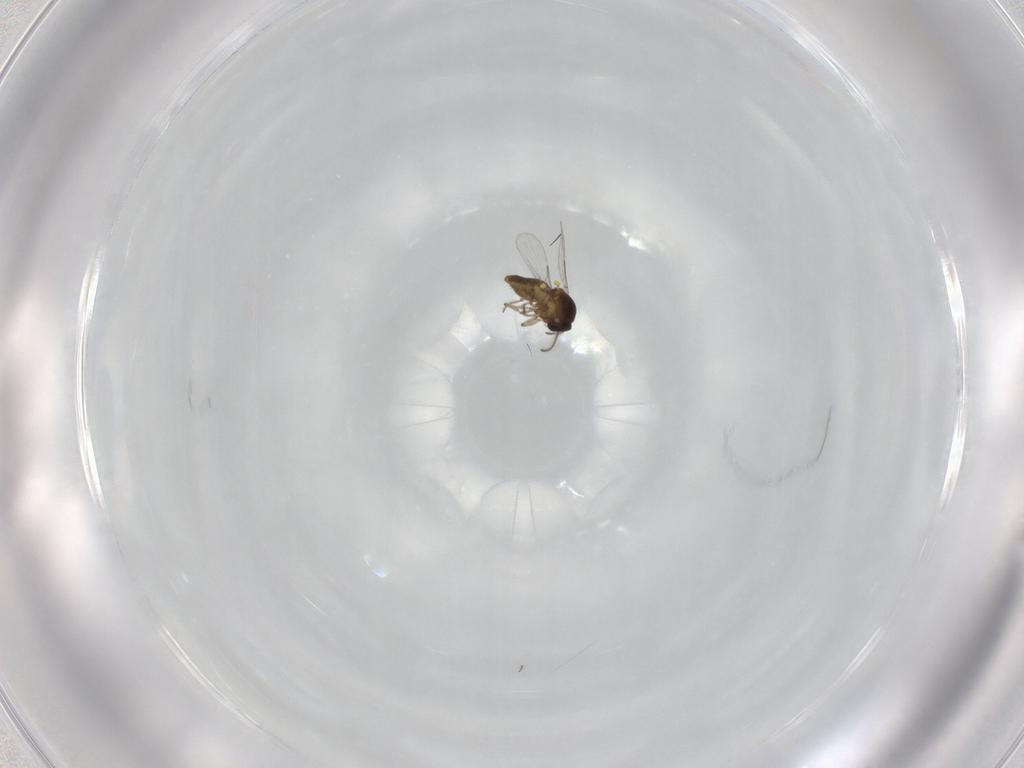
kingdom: Animalia
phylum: Arthropoda
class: Insecta
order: Diptera
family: Ceratopogonidae
